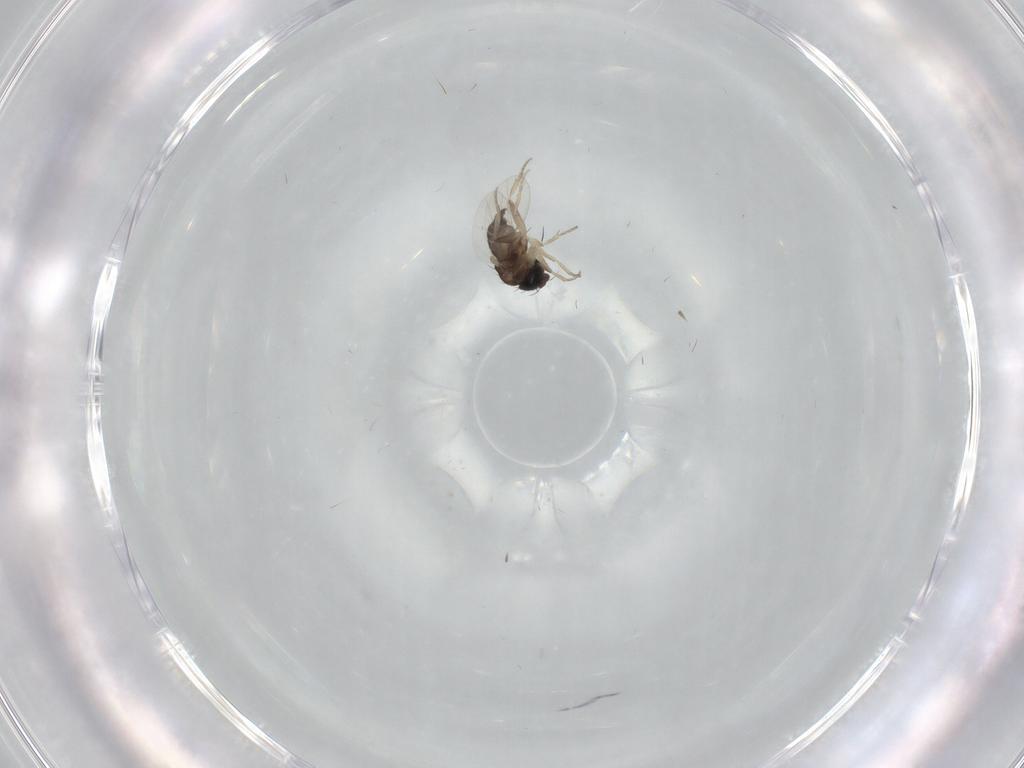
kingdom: Animalia
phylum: Arthropoda
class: Insecta
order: Diptera
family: Phoridae
